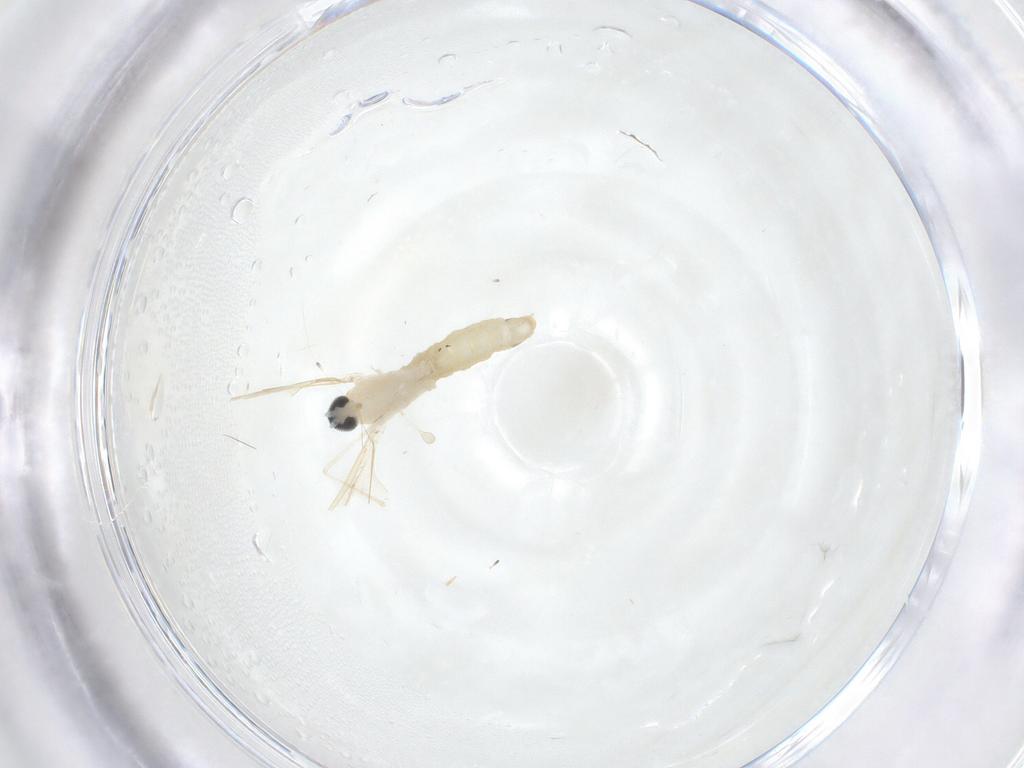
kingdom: Animalia
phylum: Arthropoda
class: Insecta
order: Diptera
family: Cecidomyiidae
